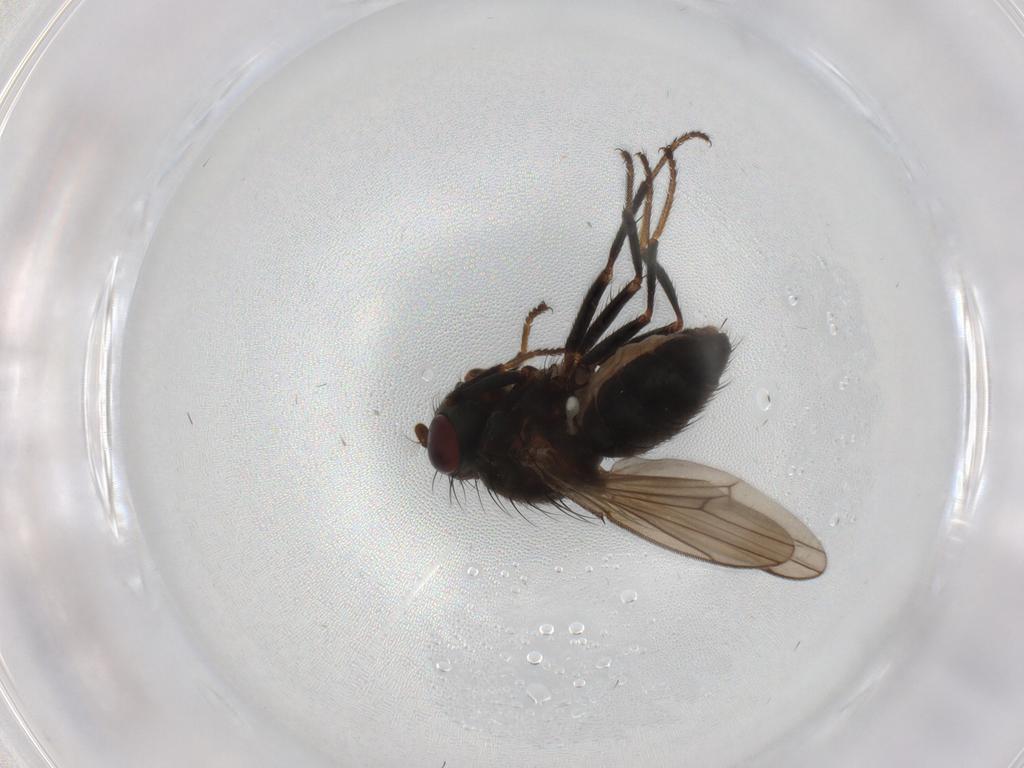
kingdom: Animalia
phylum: Arthropoda
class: Insecta
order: Diptera
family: Ephydridae
